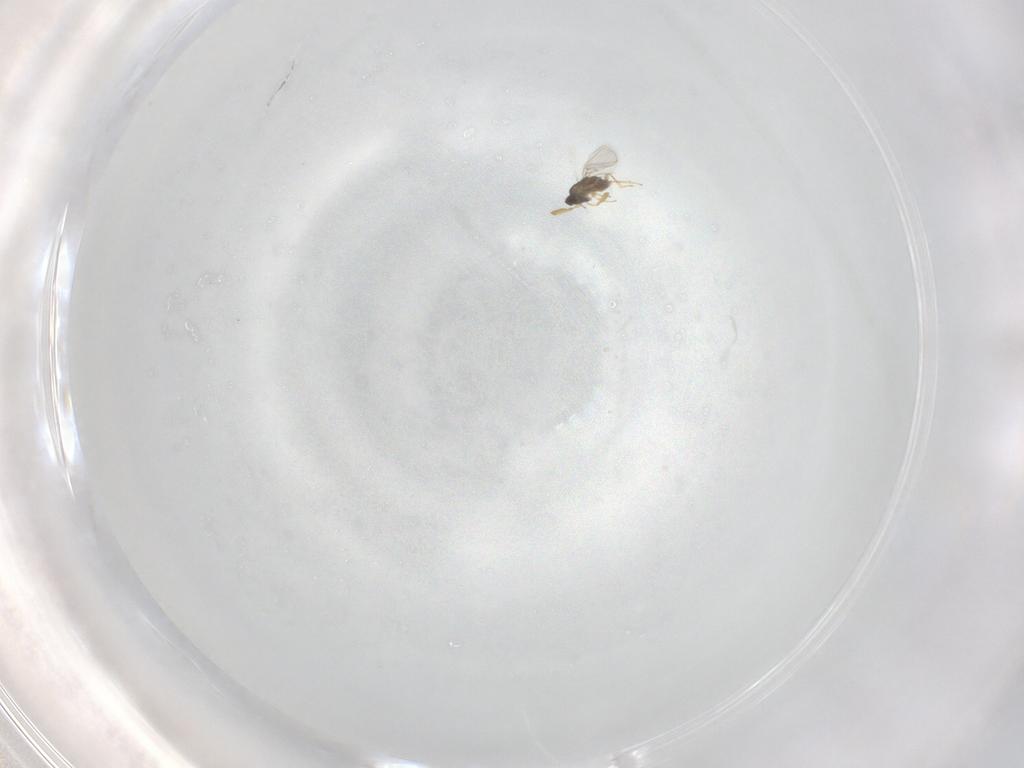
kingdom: Animalia
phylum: Arthropoda
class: Insecta
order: Hymenoptera
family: Encyrtidae
